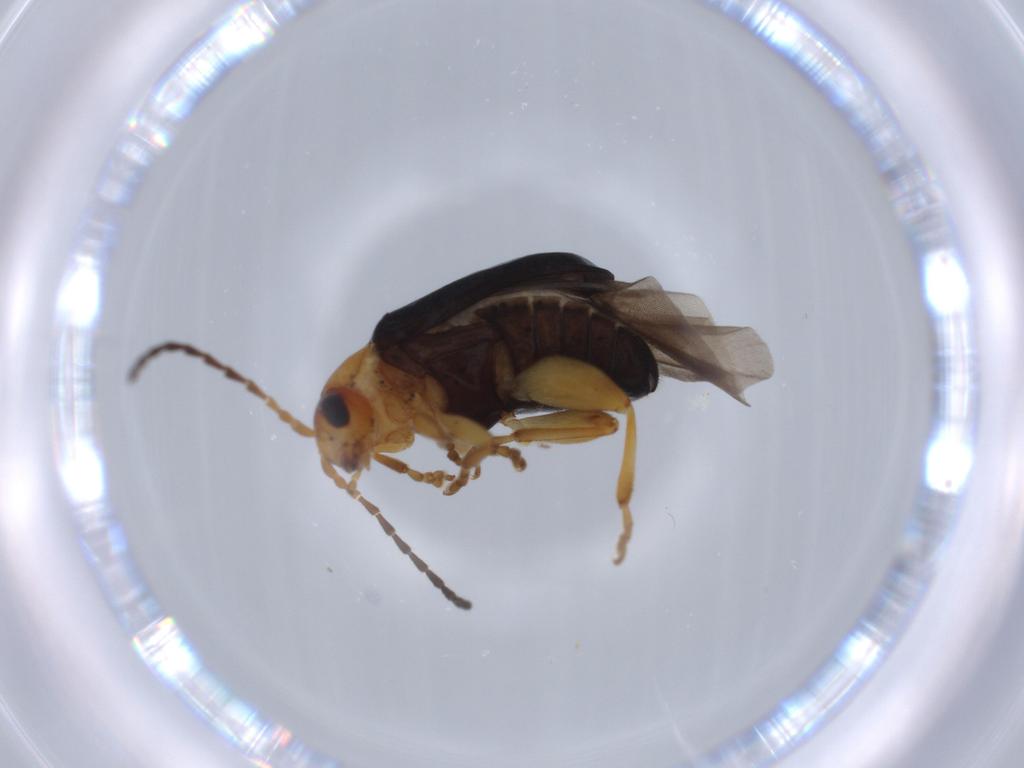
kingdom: Animalia
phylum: Arthropoda
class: Insecta
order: Coleoptera
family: Chrysomelidae
